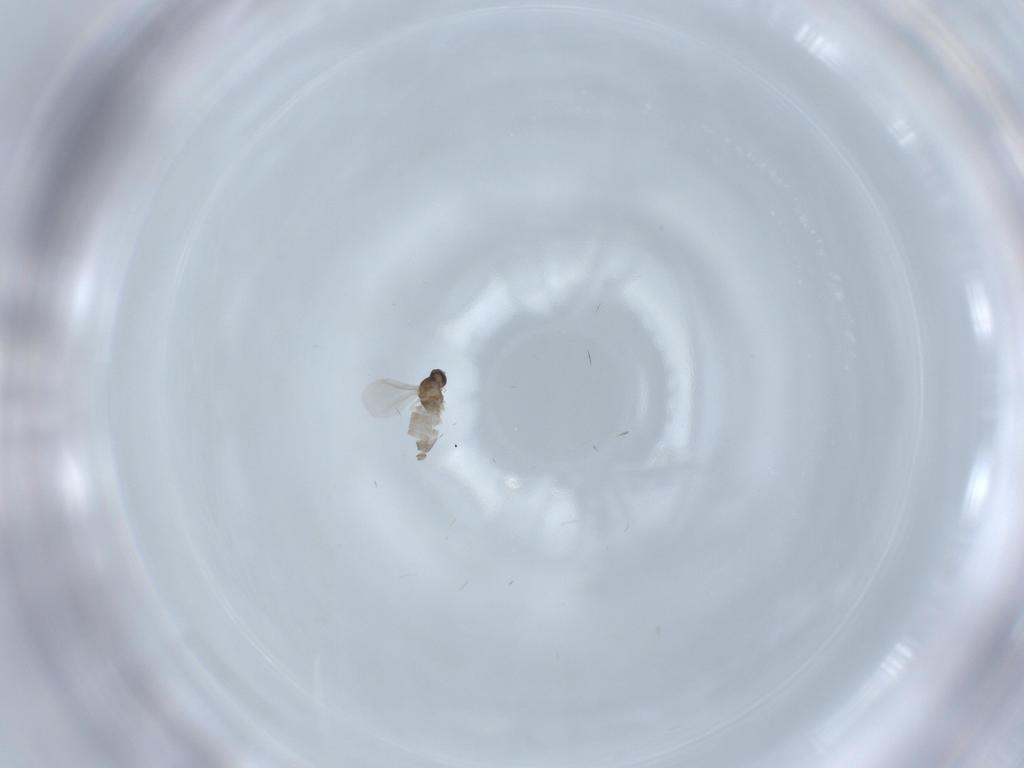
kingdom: Animalia
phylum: Arthropoda
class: Insecta
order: Diptera
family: Cecidomyiidae
